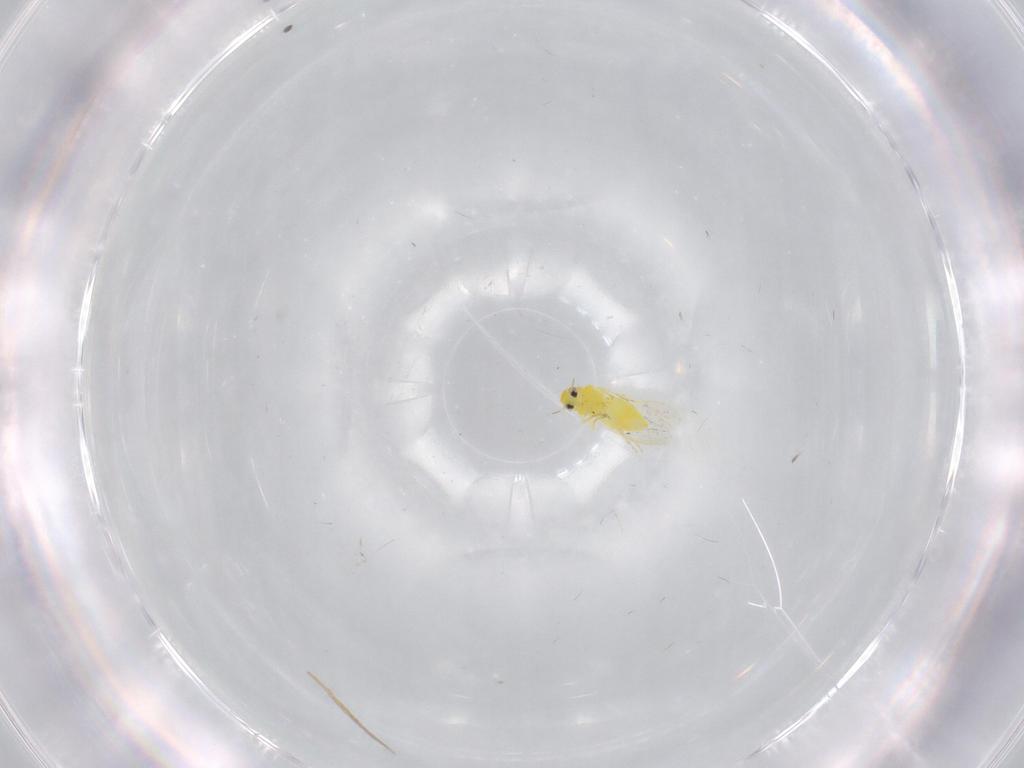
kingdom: Animalia
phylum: Arthropoda
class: Insecta
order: Hemiptera
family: Aleyrodidae
